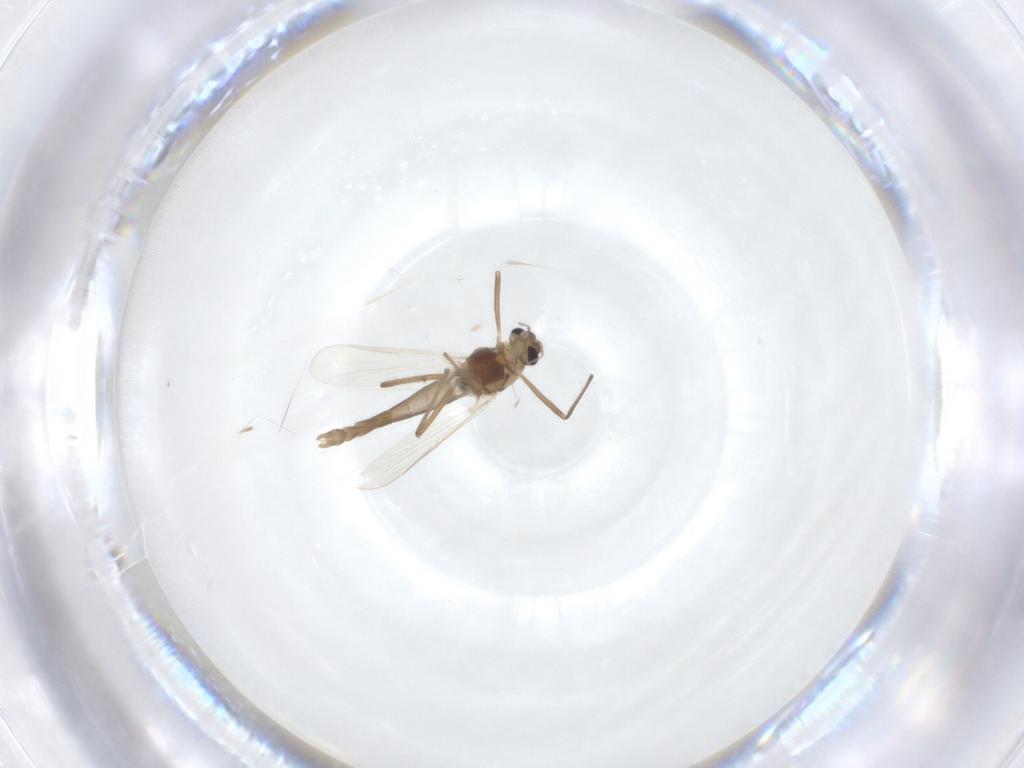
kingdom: Animalia
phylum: Arthropoda
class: Insecta
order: Diptera
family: Chironomidae
